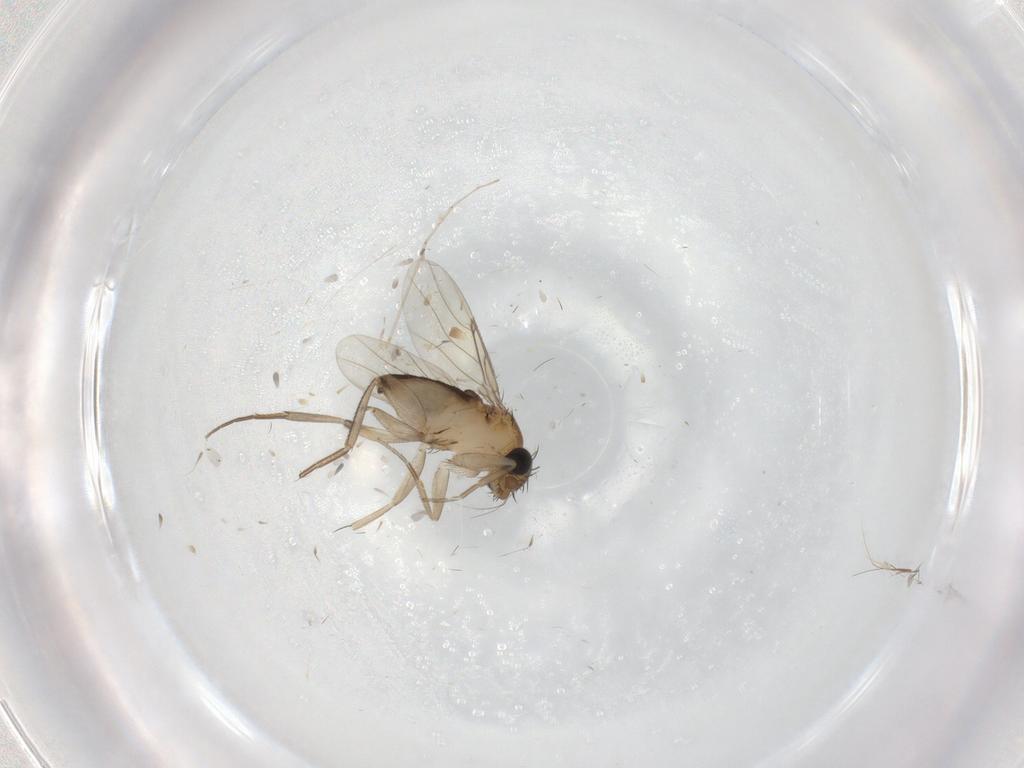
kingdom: Animalia
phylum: Arthropoda
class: Insecta
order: Diptera
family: Phoridae
